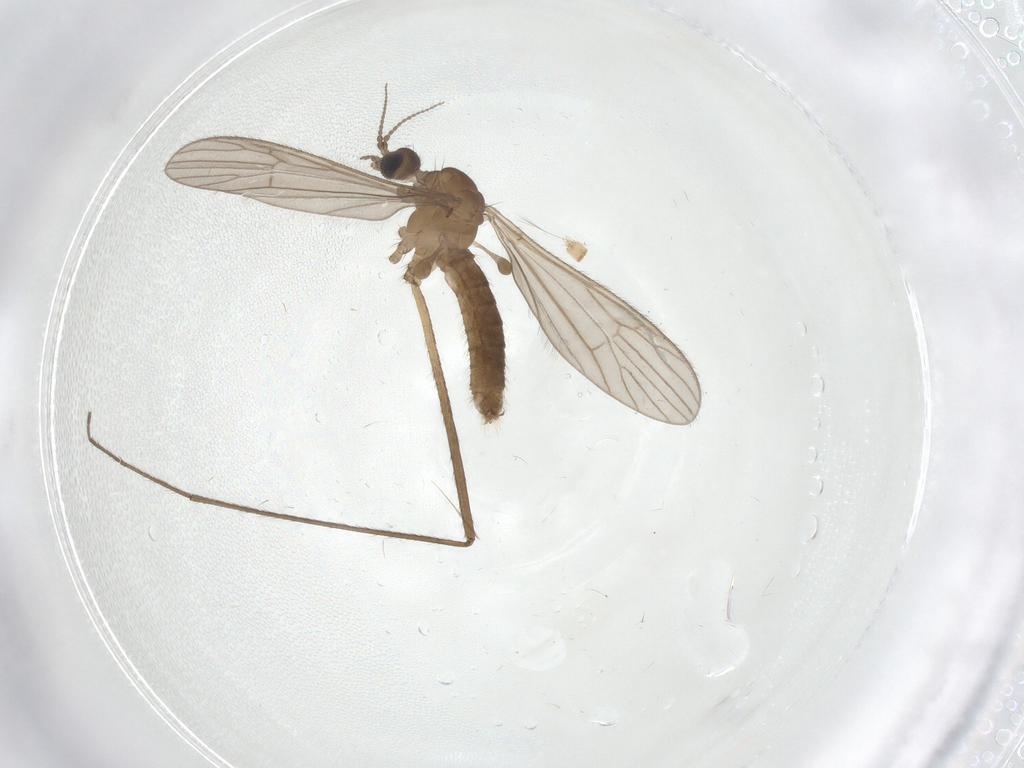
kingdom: Animalia
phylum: Arthropoda
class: Insecta
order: Diptera
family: Limoniidae
